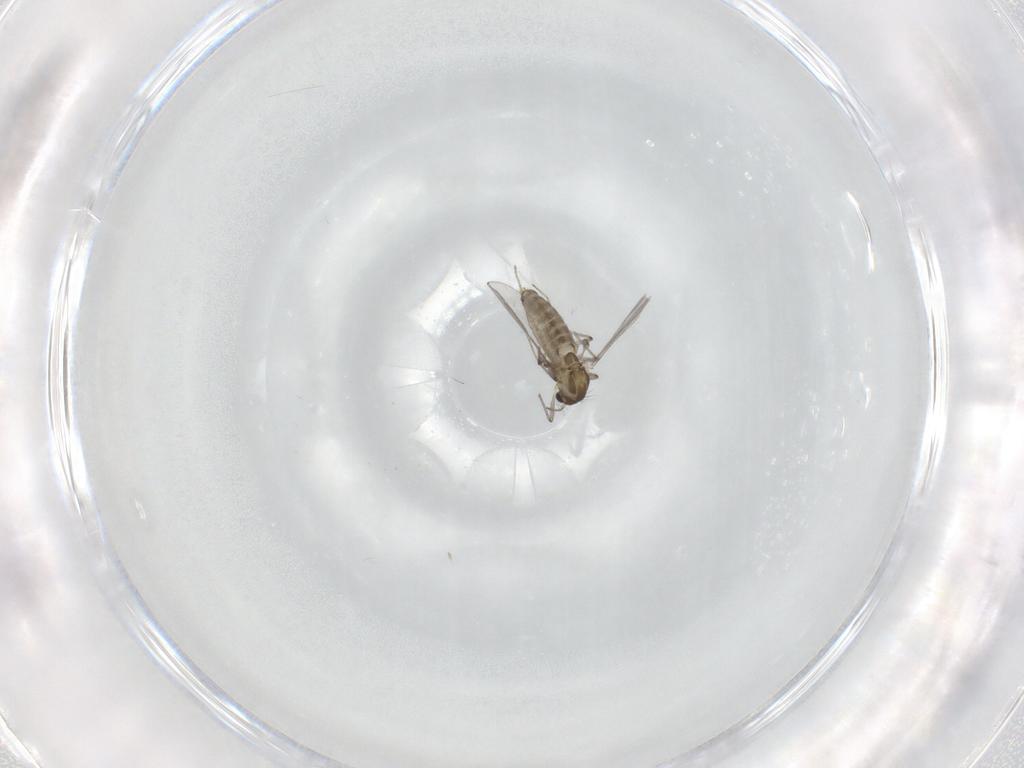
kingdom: Animalia
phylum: Arthropoda
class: Insecta
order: Diptera
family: Chironomidae
